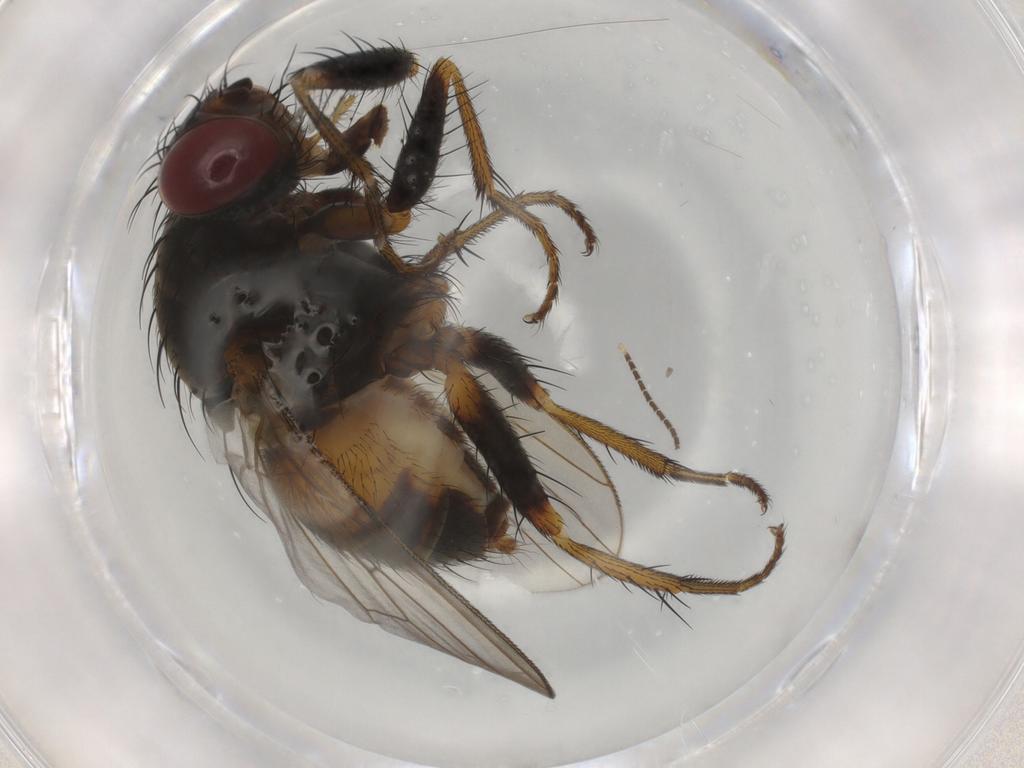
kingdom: Animalia
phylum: Arthropoda
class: Insecta
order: Diptera
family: Muscidae
